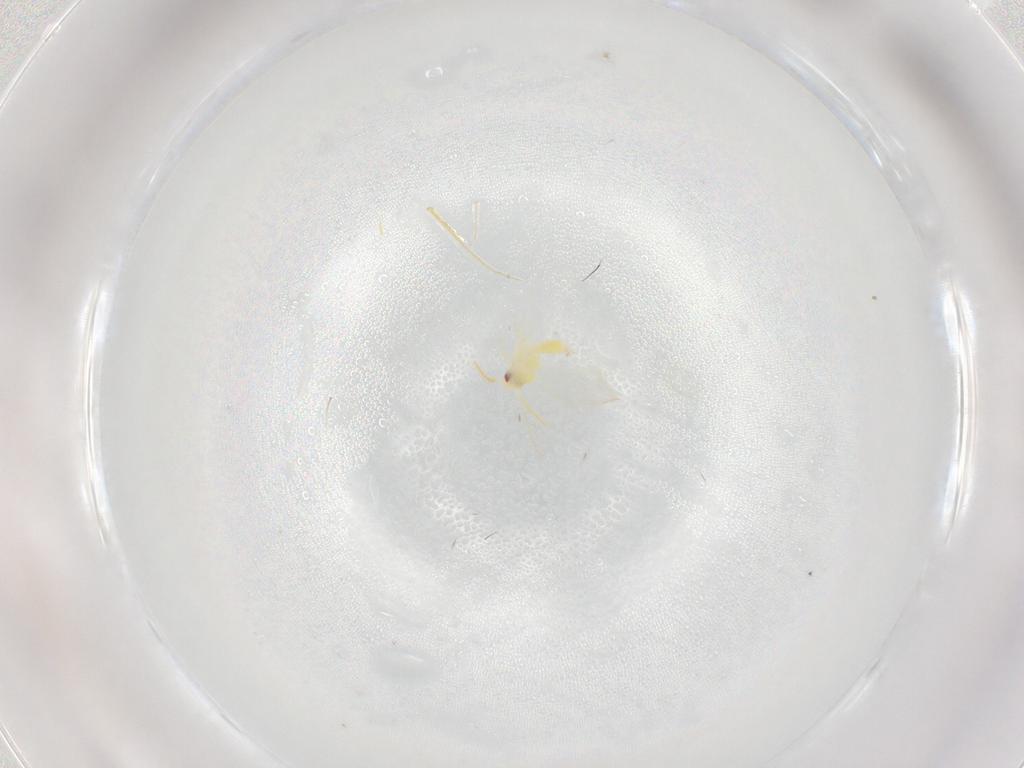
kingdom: Animalia
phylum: Arthropoda
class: Insecta
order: Hemiptera
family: Aleyrodidae
